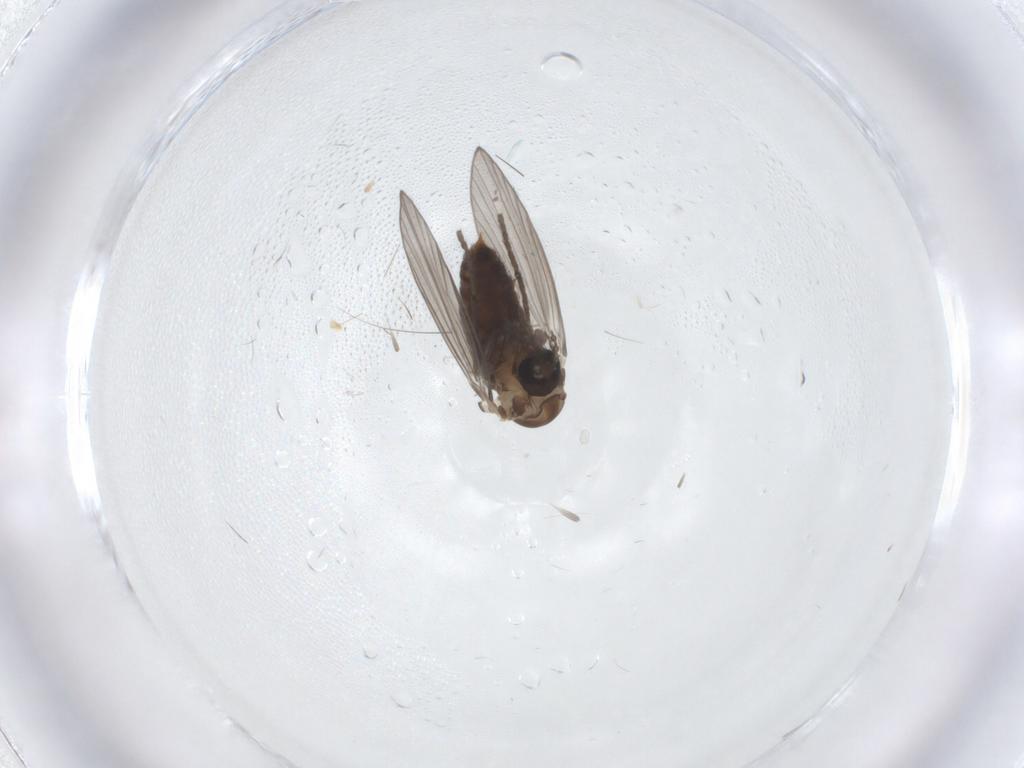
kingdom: Animalia
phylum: Arthropoda
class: Insecta
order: Diptera
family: Psychodidae
